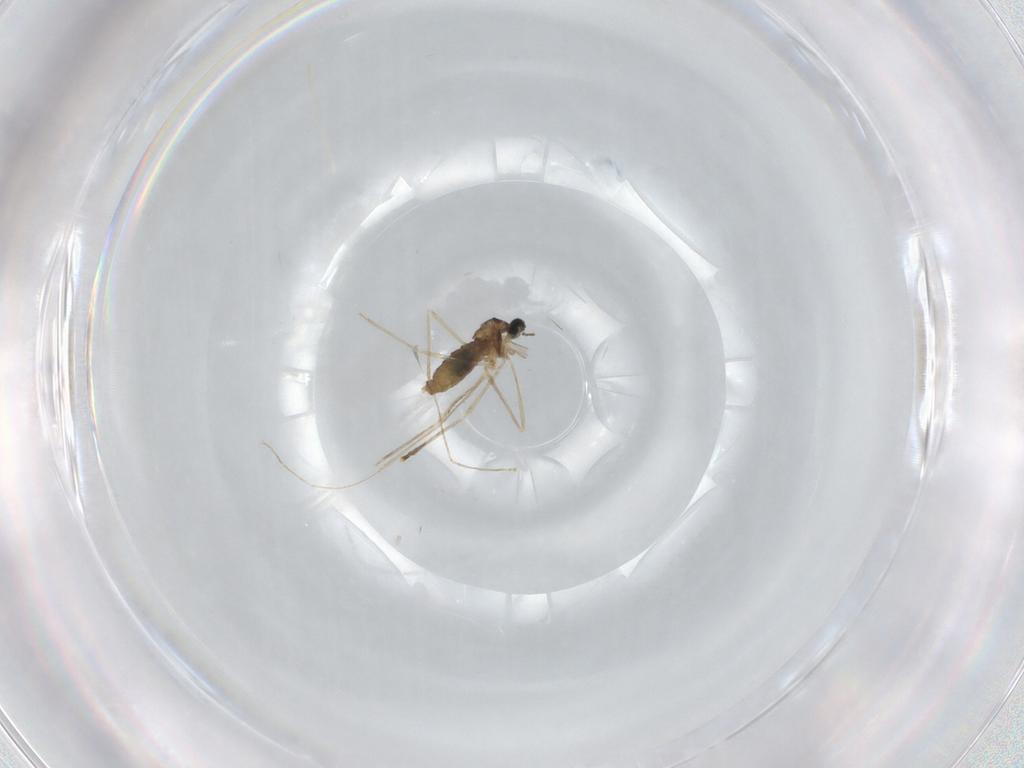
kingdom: Animalia
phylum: Arthropoda
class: Insecta
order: Diptera
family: Cecidomyiidae
